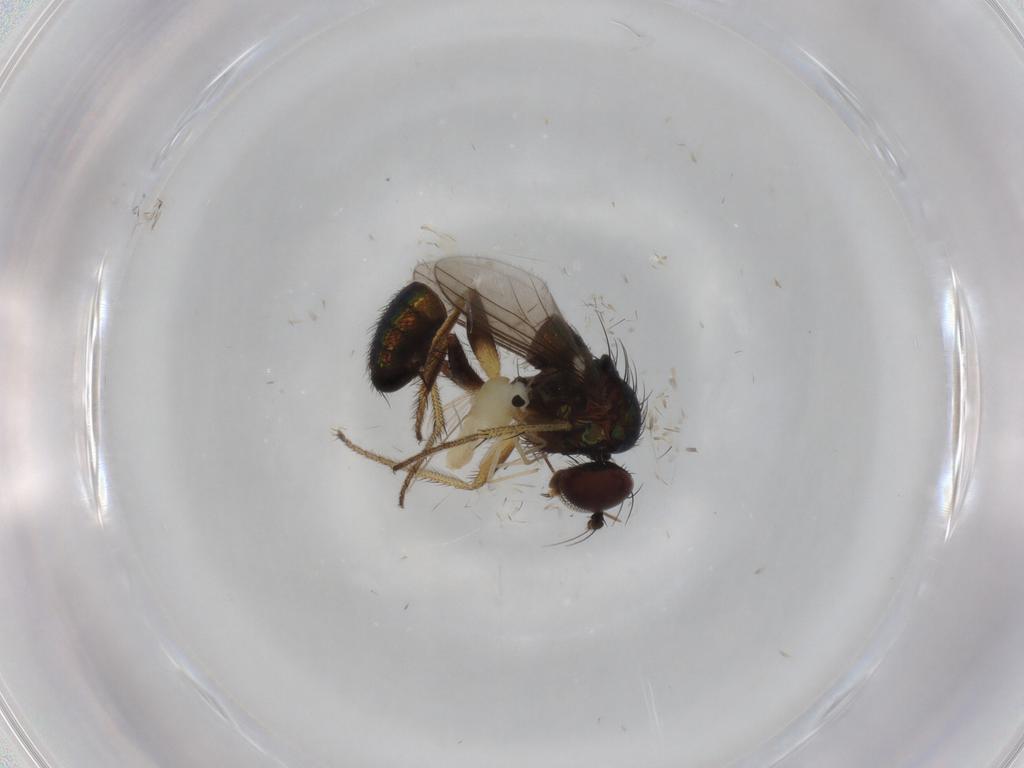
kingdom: Animalia
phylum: Arthropoda
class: Insecta
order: Diptera
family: Dolichopodidae
